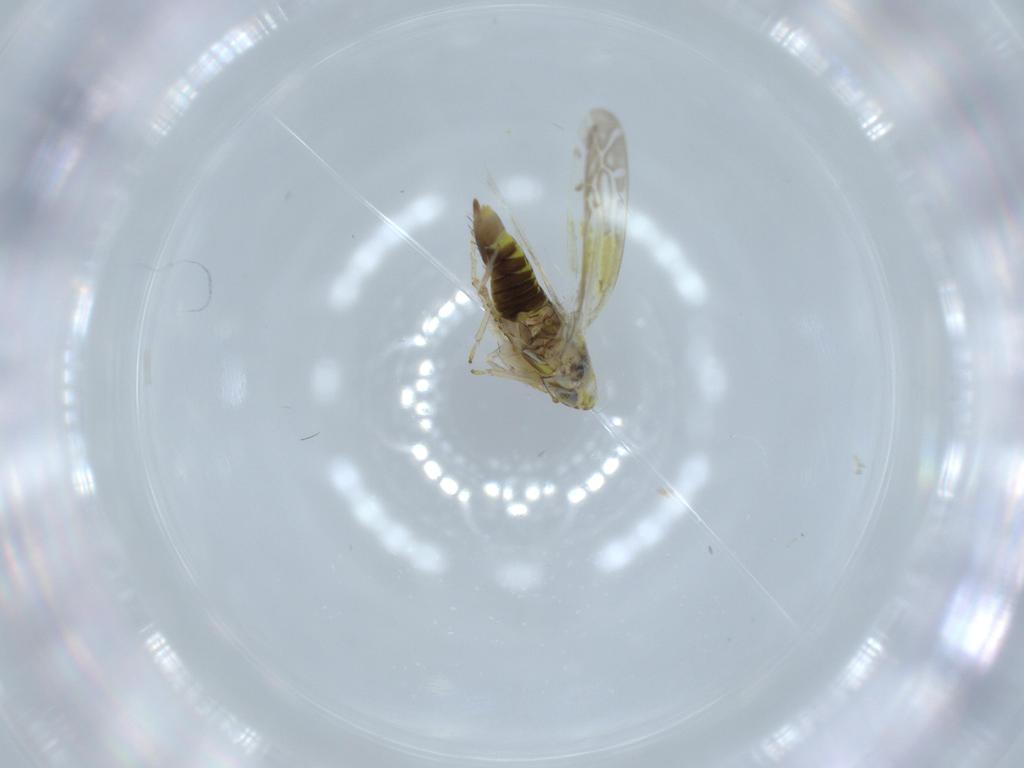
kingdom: Animalia
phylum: Arthropoda
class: Insecta
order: Hemiptera
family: Cicadellidae
